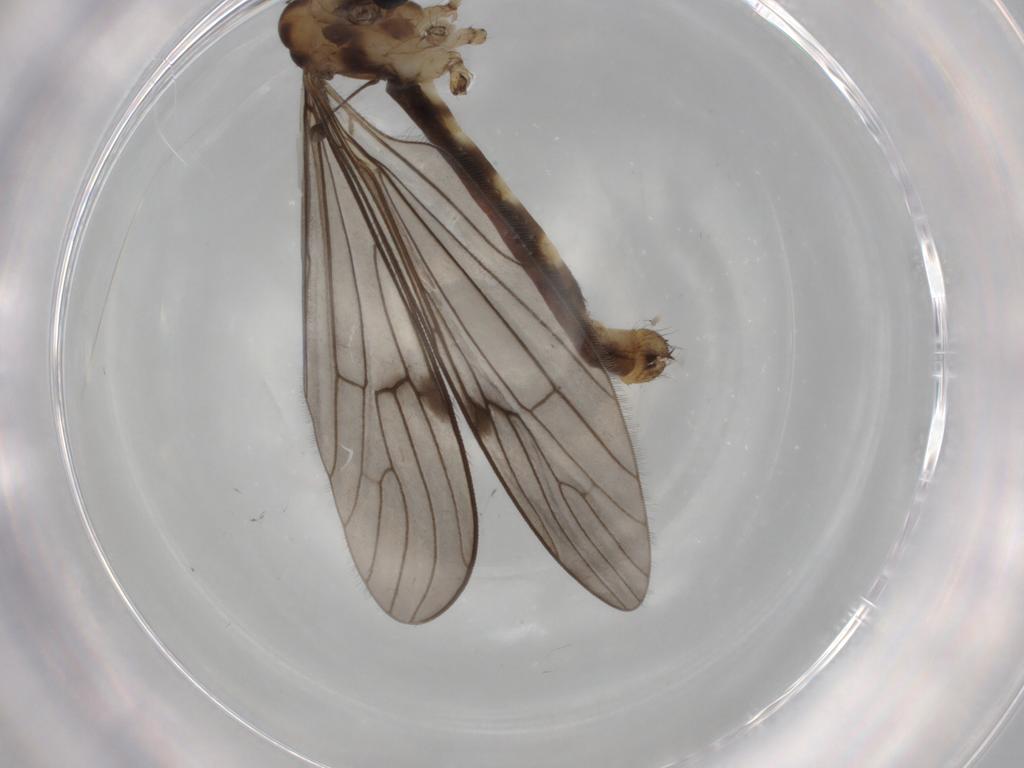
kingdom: Animalia
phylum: Arthropoda
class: Insecta
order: Diptera
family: Limoniidae
